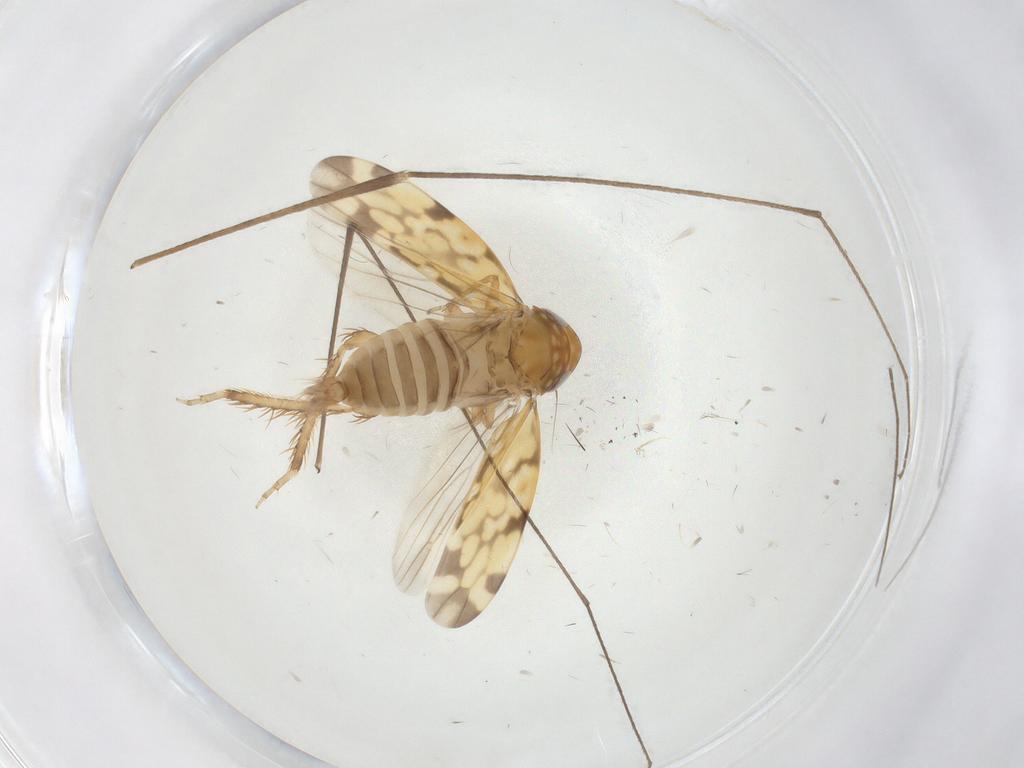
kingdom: Animalia
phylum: Arthropoda
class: Insecta
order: Hemiptera
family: Cicadellidae
